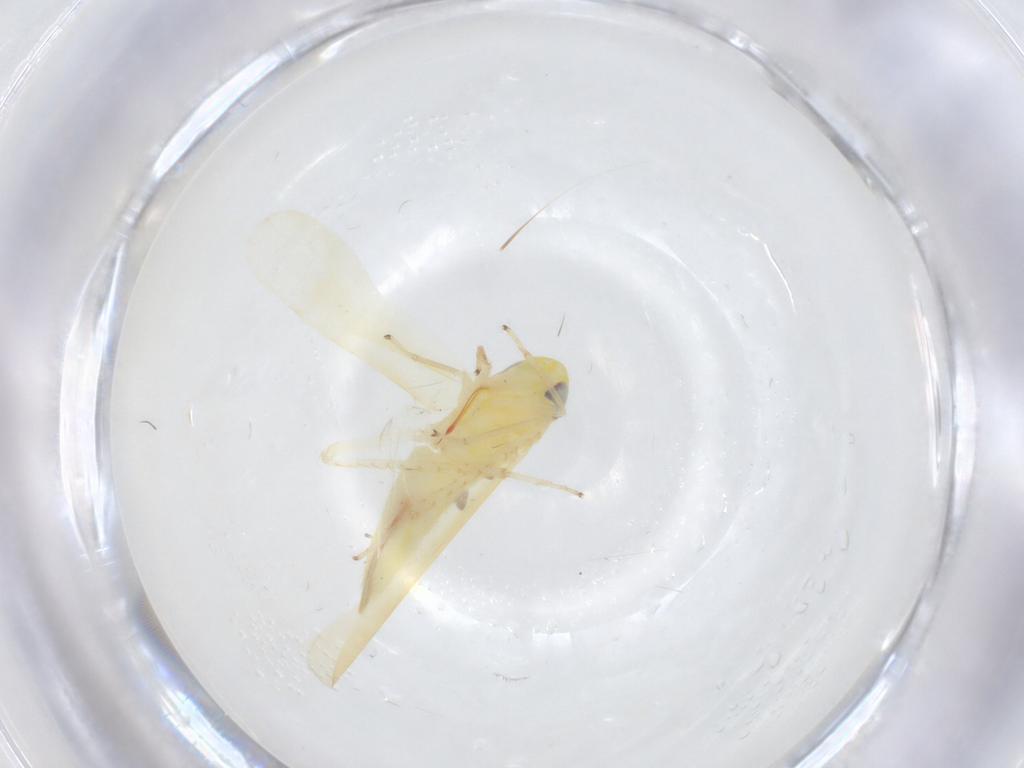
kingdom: Animalia
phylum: Arthropoda
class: Insecta
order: Hemiptera
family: Cicadellidae
